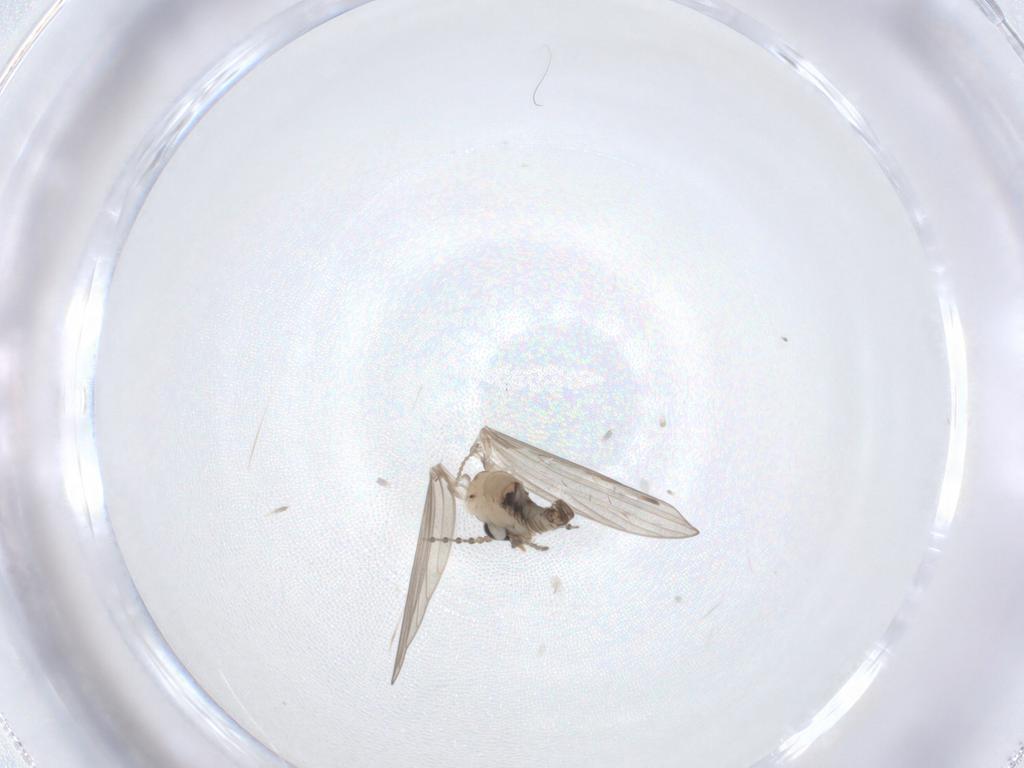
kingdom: Animalia
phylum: Arthropoda
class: Insecta
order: Diptera
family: Psychodidae
